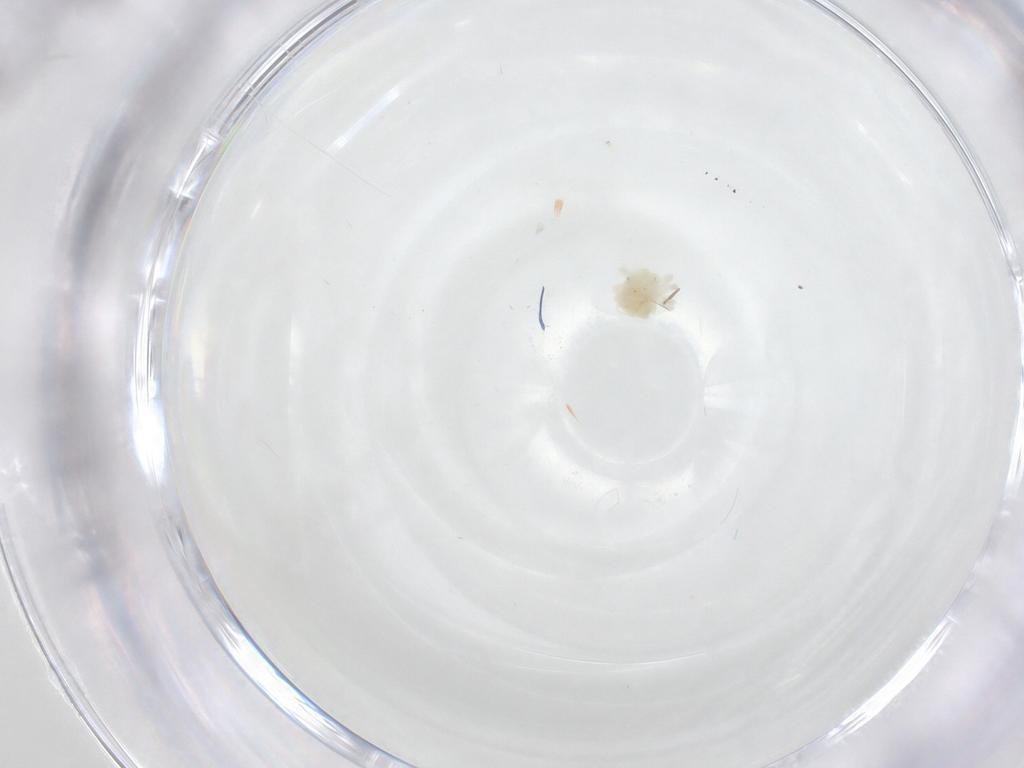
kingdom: Animalia
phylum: Arthropoda
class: Arachnida
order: Trombidiformes
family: Anystidae
